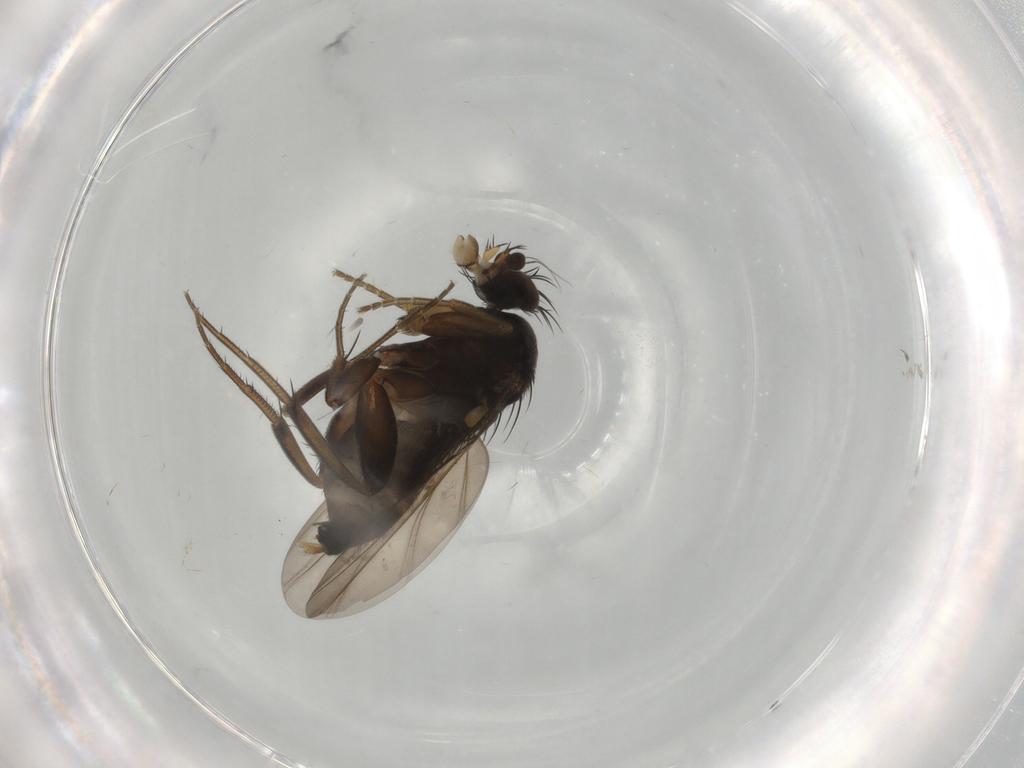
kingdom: Animalia
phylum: Arthropoda
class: Insecta
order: Diptera
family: Phoridae
